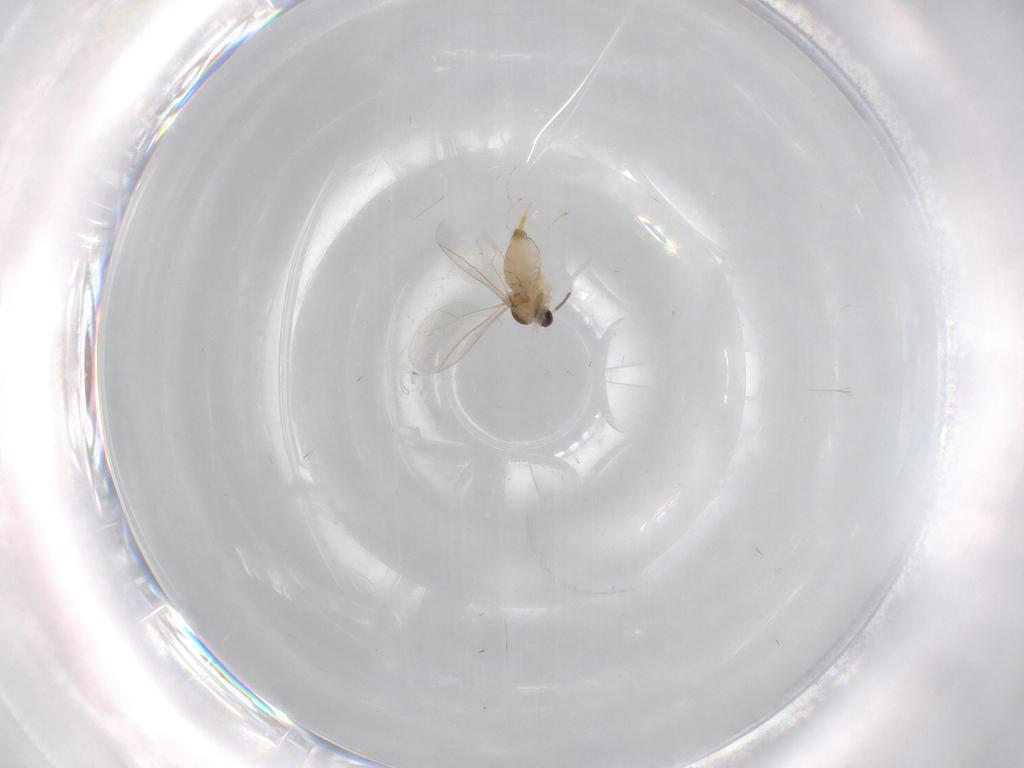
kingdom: Animalia
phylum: Arthropoda
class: Insecta
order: Diptera
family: Cecidomyiidae
